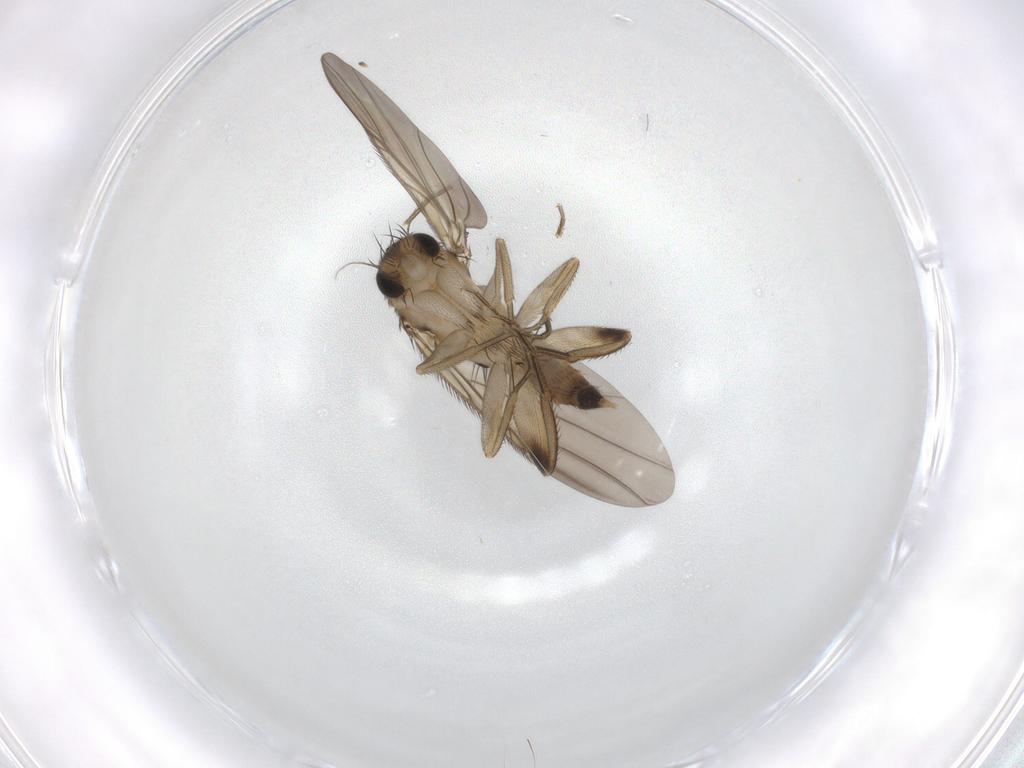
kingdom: Animalia
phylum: Arthropoda
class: Insecta
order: Diptera
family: Phoridae
